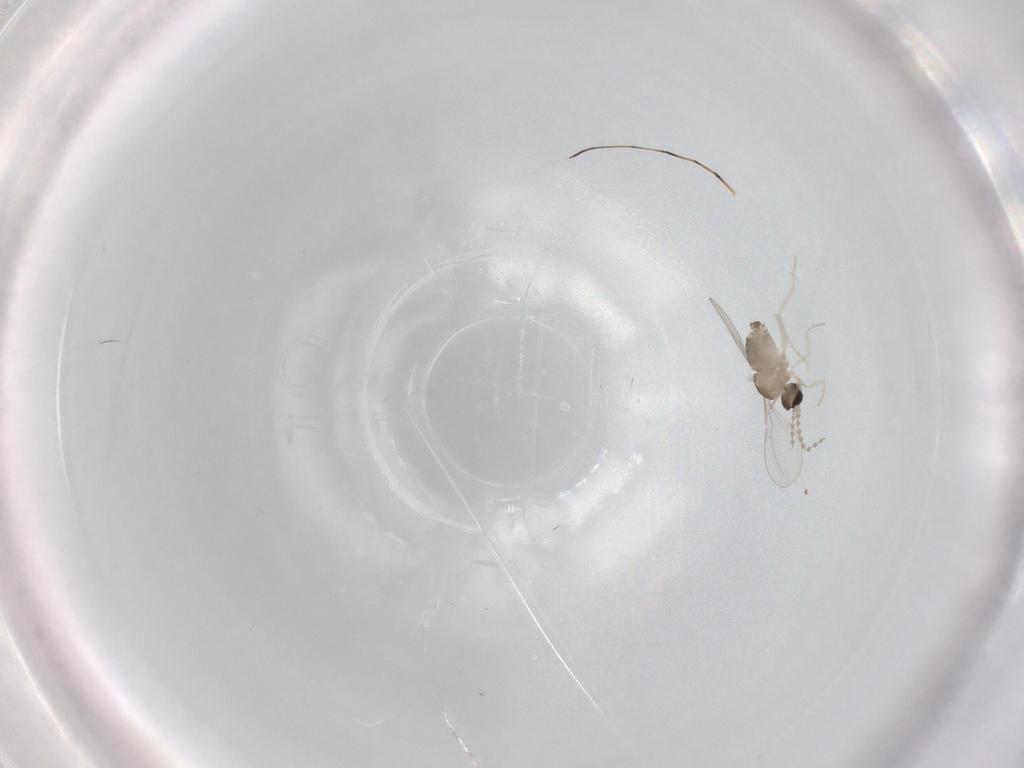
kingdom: Animalia
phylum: Arthropoda
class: Insecta
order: Diptera
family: Cecidomyiidae
